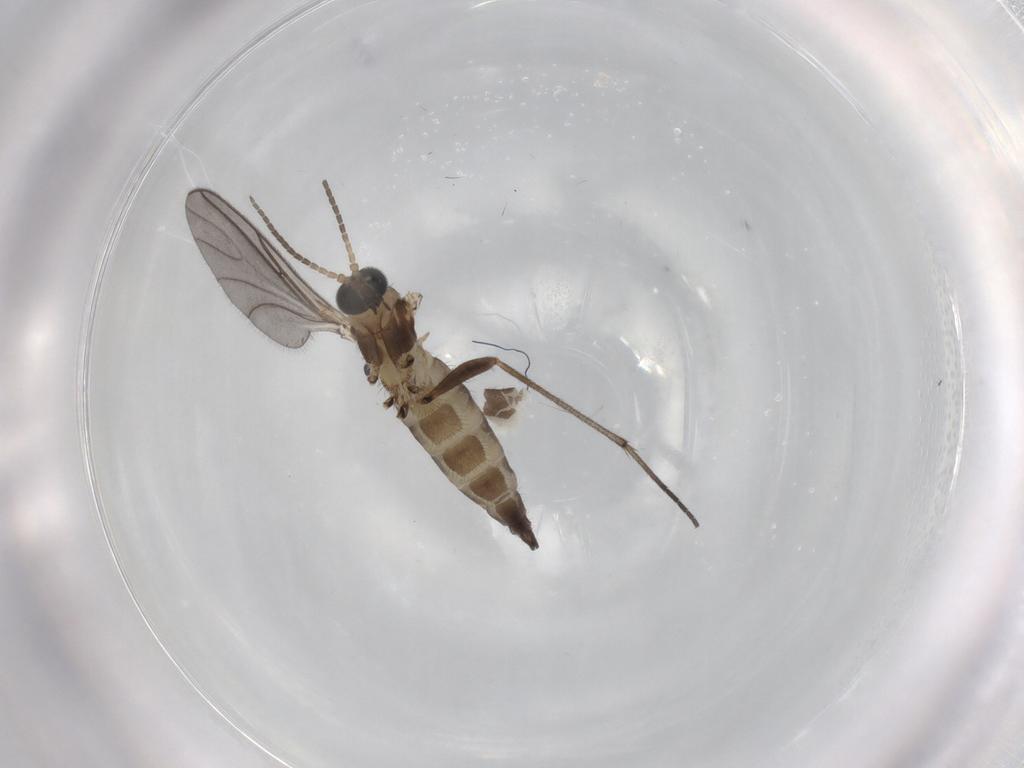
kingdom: Animalia
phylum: Arthropoda
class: Insecta
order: Diptera
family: Sciaridae
